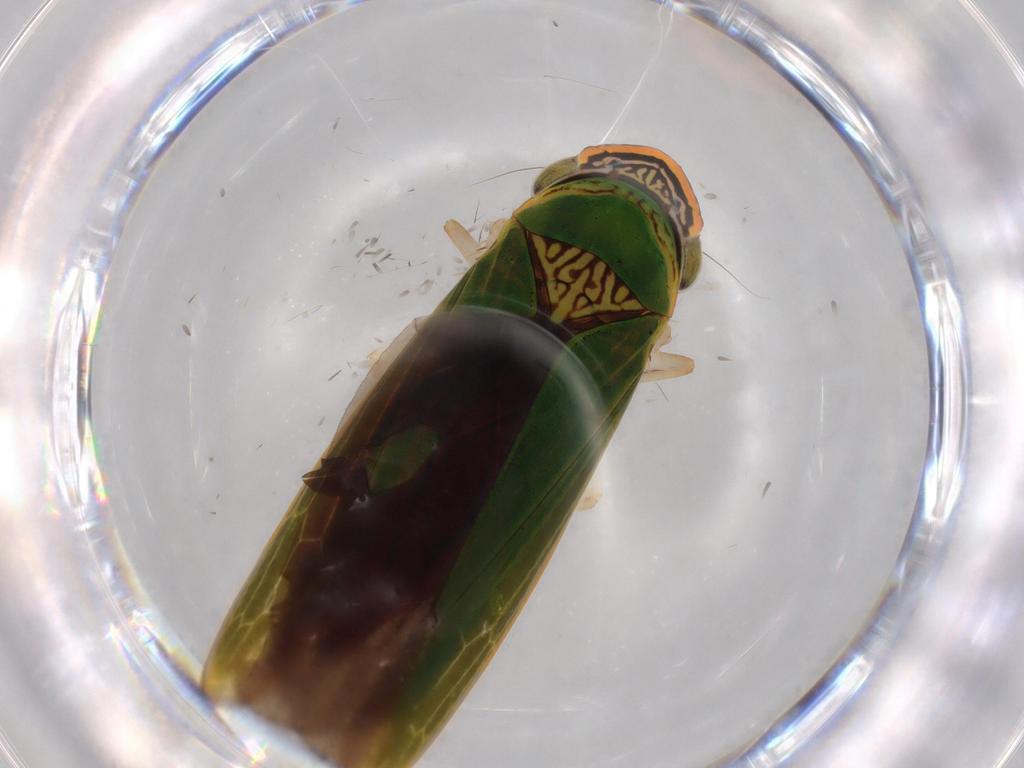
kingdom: Animalia
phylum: Arthropoda
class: Insecta
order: Hemiptera
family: Cicadellidae
